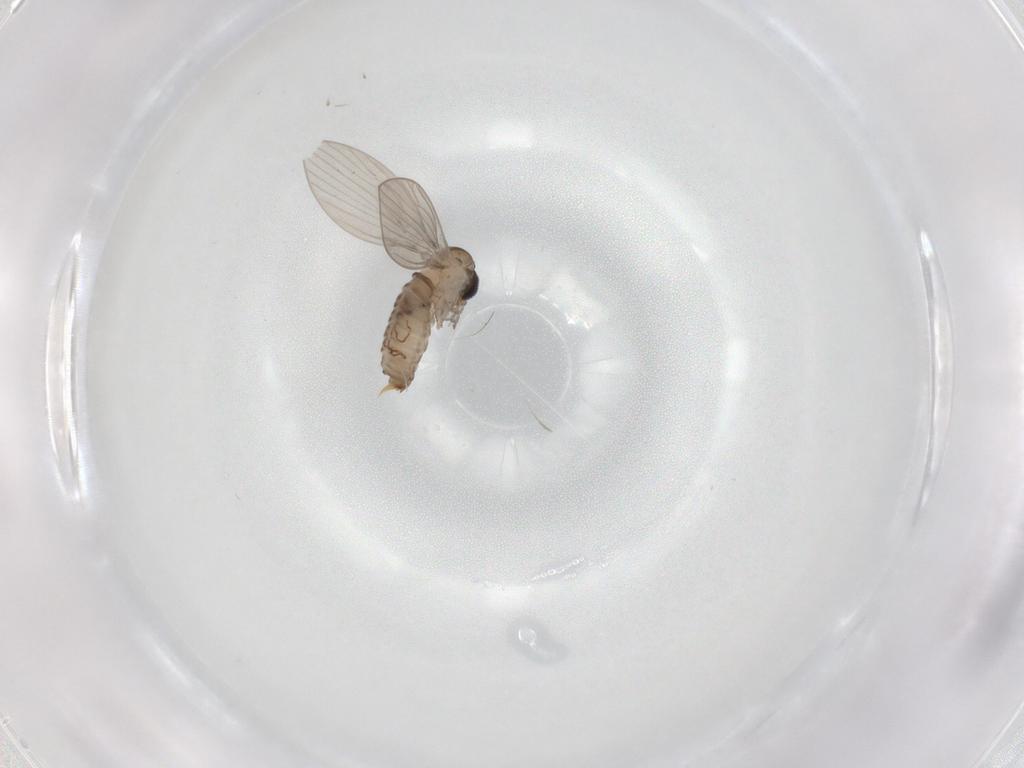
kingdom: Animalia
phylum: Arthropoda
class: Insecta
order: Diptera
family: Psychodidae
